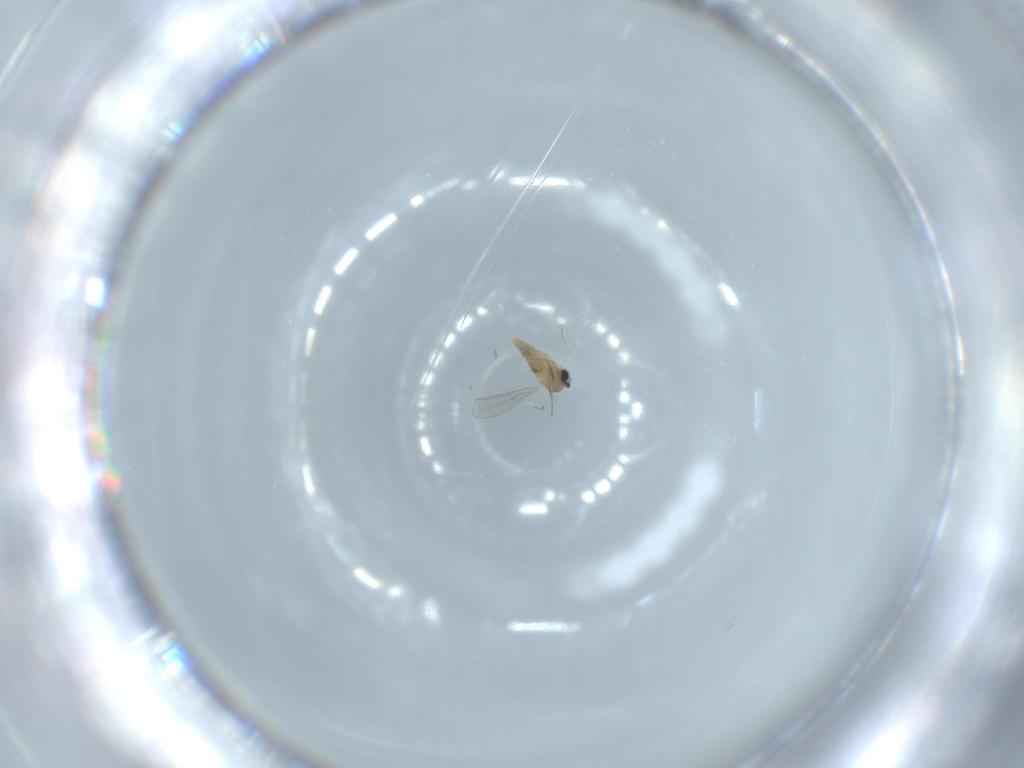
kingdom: Animalia
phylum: Arthropoda
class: Insecta
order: Diptera
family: Cecidomyiidae
